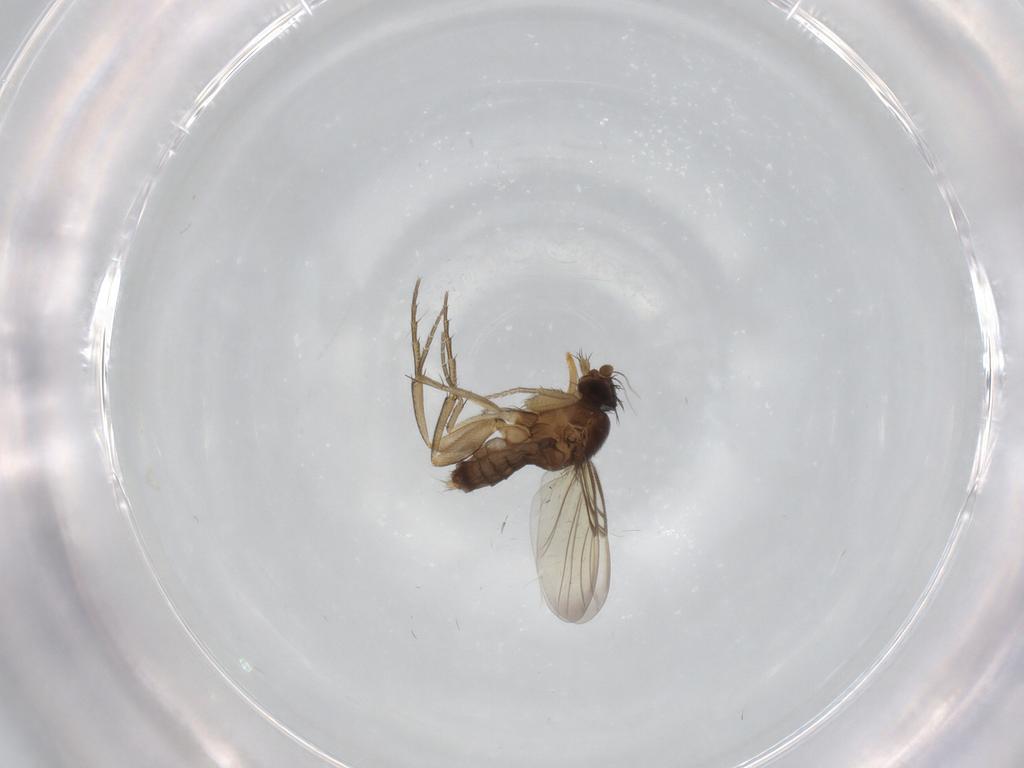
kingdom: Animalia
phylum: Arthropoda
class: Insecta
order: Diptera
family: Phoridae
